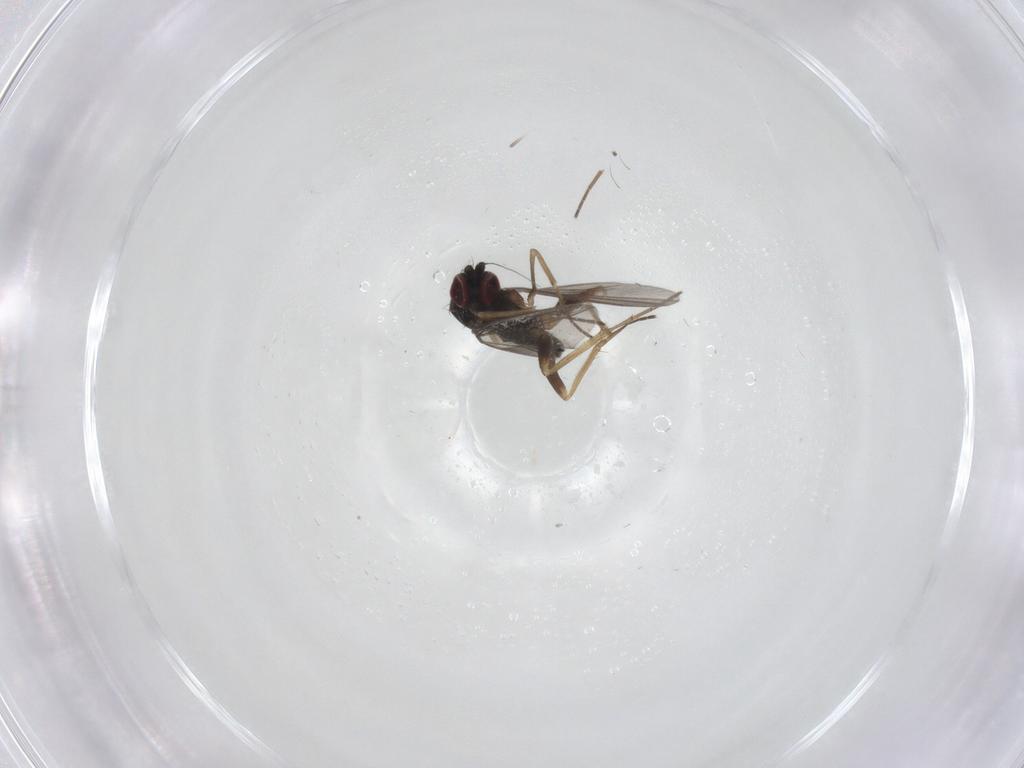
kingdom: Animalia
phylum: Arthropoda
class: Insecta
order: Diptera
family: Dolichopodidae
